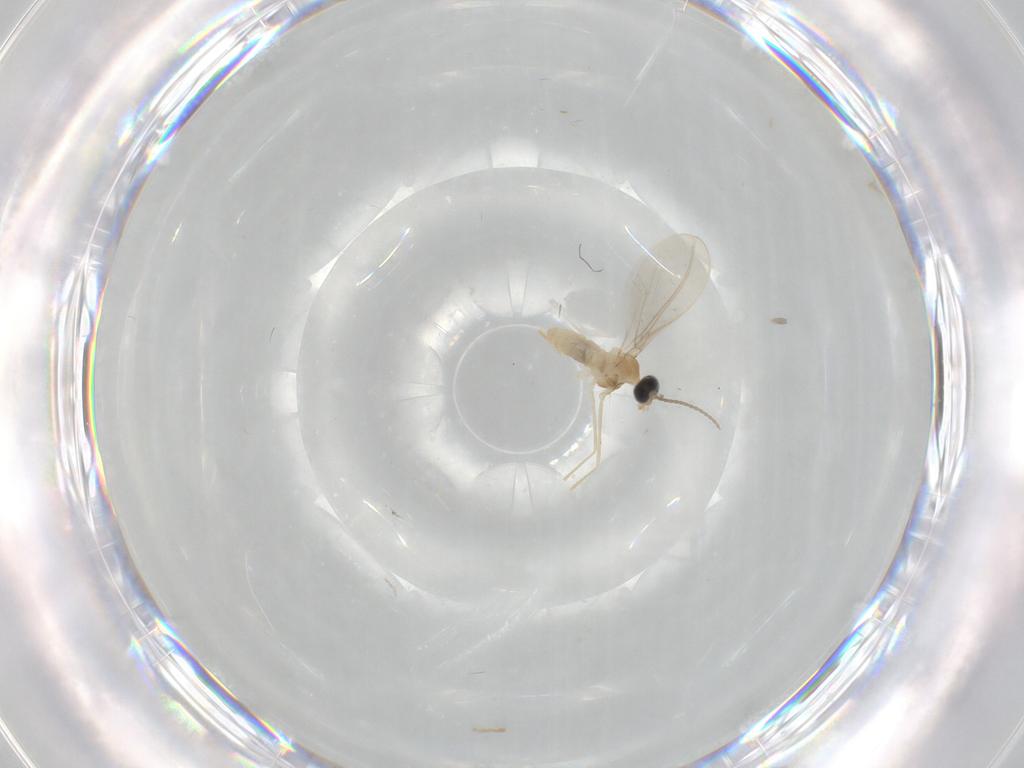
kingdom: Animalia
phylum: Arthropoda
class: Insecta
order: Diptera
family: Cecidomyiidae
